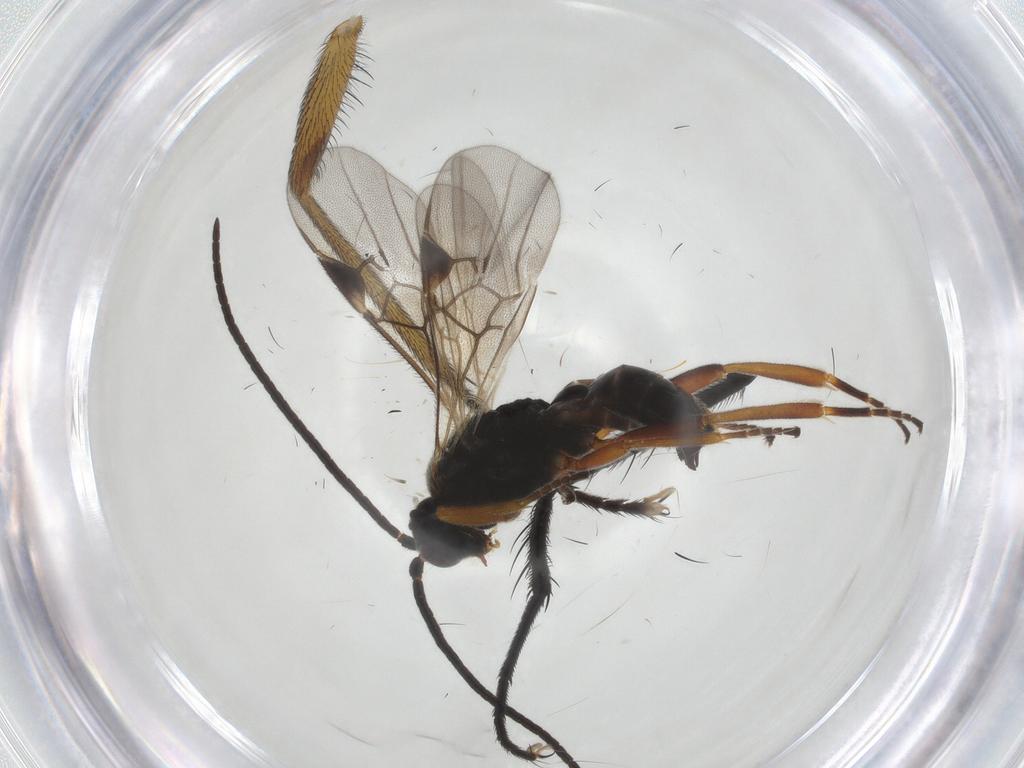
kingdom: Animalia
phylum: Arthropoda
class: Insecta
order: Hymenoptera
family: Braconidae
